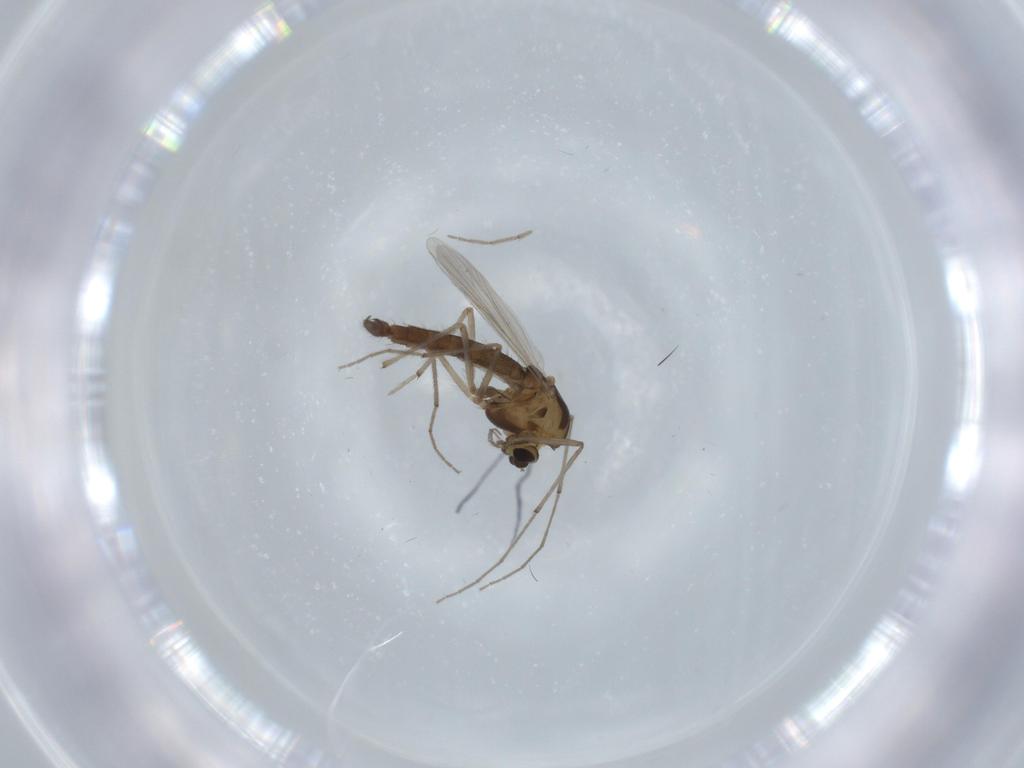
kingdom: Animalia
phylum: Arthropoda
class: Insecta
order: Diptera
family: Chironomidae
